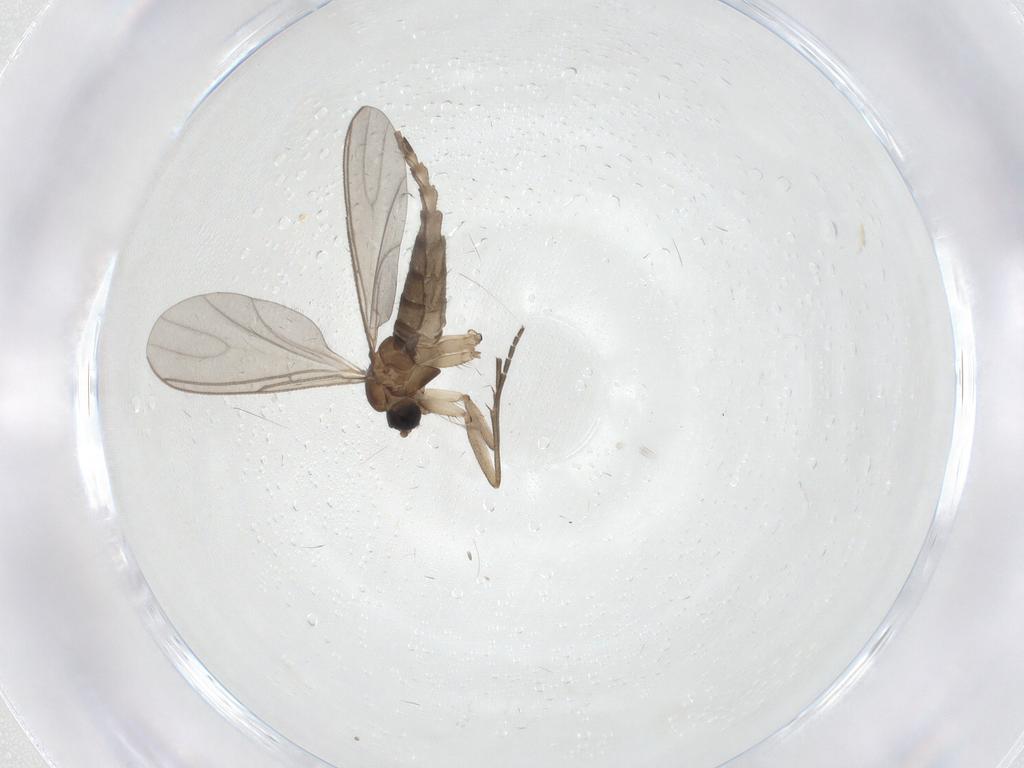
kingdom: Animalia
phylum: Arthropoda
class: Insecta
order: Diptera
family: Sciaridae
